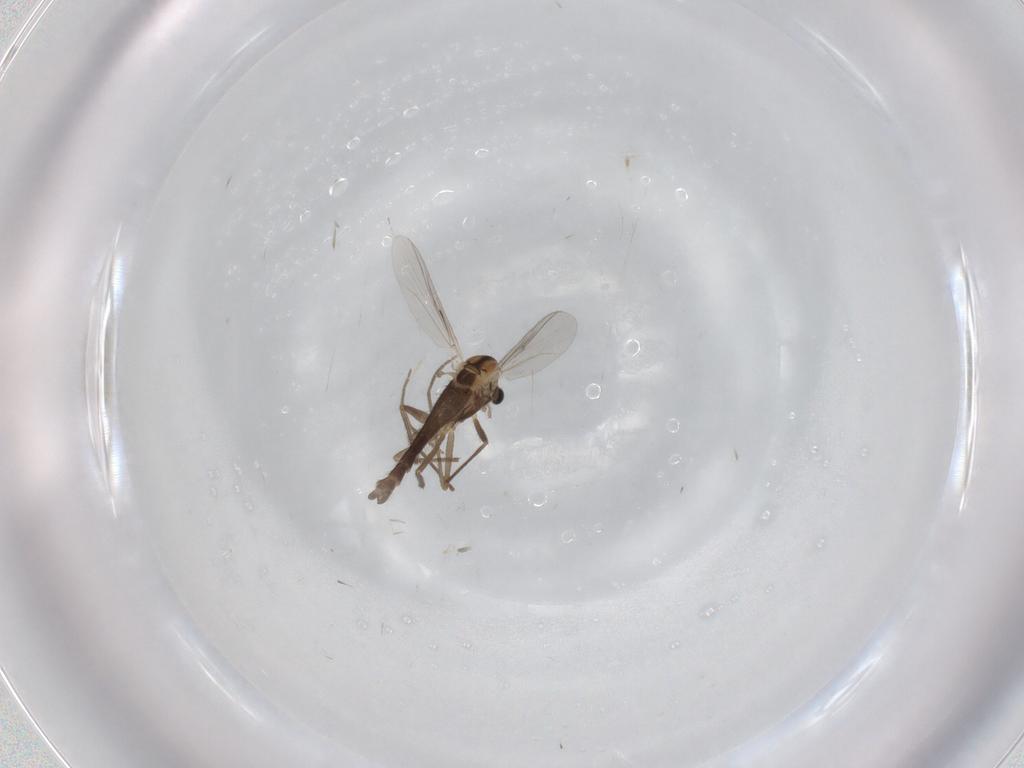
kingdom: Animalia
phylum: Arthropoda
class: Insecta
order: Diptera
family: Chironomidae
